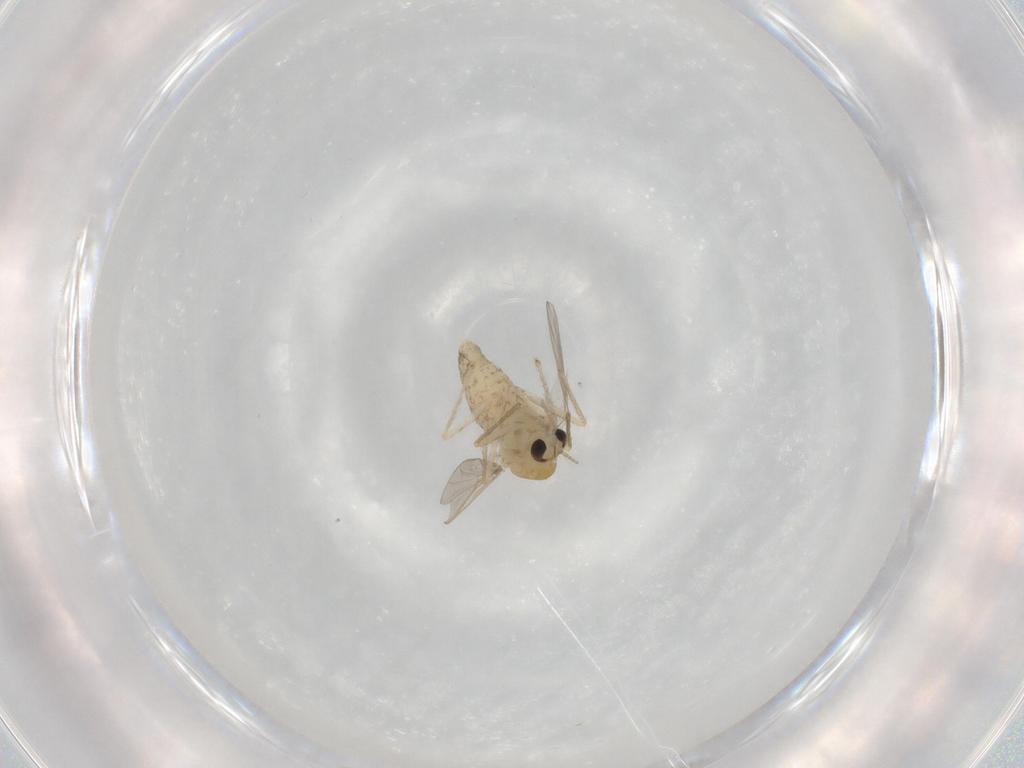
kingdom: Animalia
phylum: Arthropoda
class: Insecta
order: Diptera
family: Chironomidae
